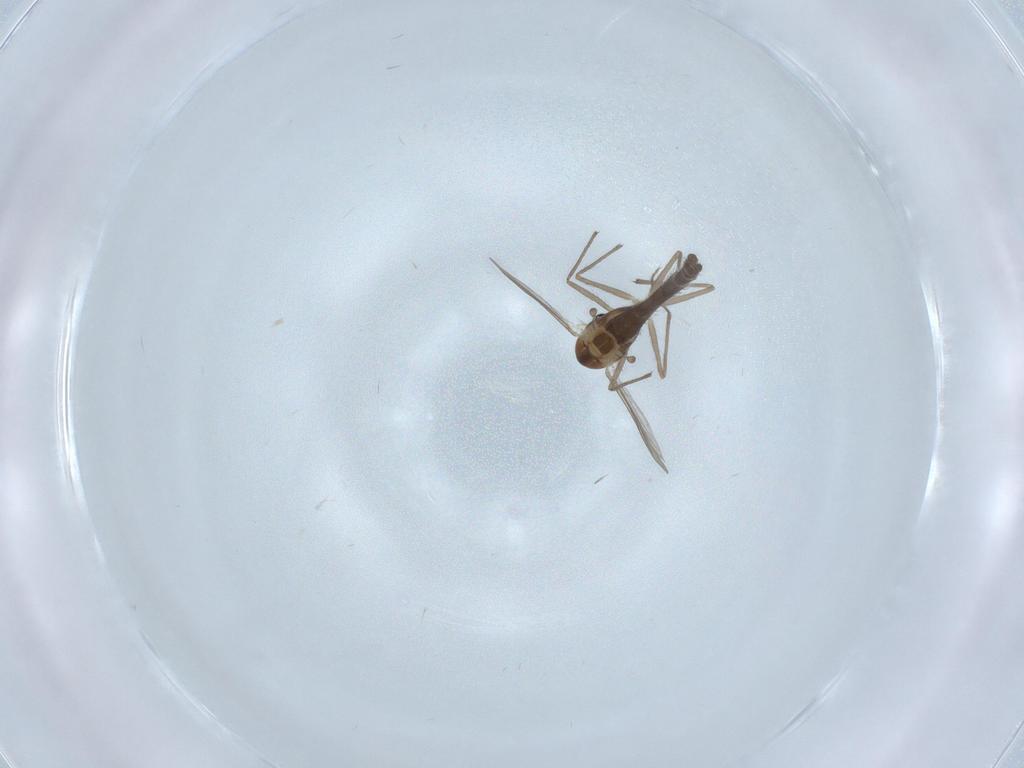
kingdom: Animalia
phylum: Arthropoda
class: Insecta
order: Diptera
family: Chironomidae
